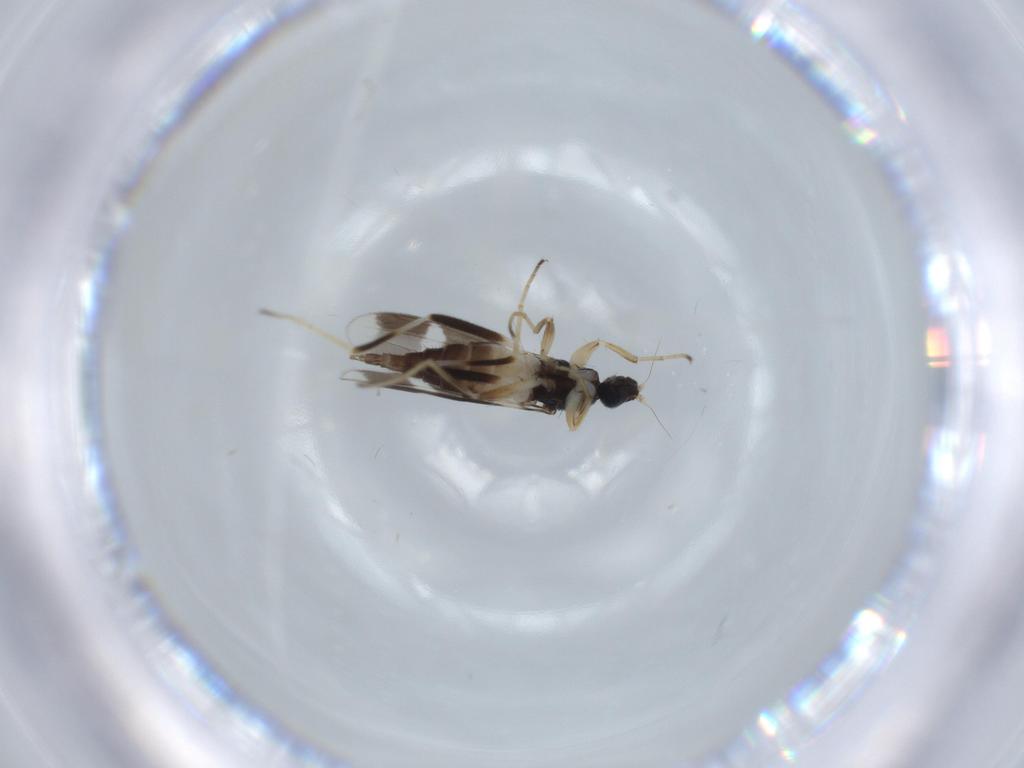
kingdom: Animalia
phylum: Arthropoda
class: Insecta
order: Diptera
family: Hybotidae
